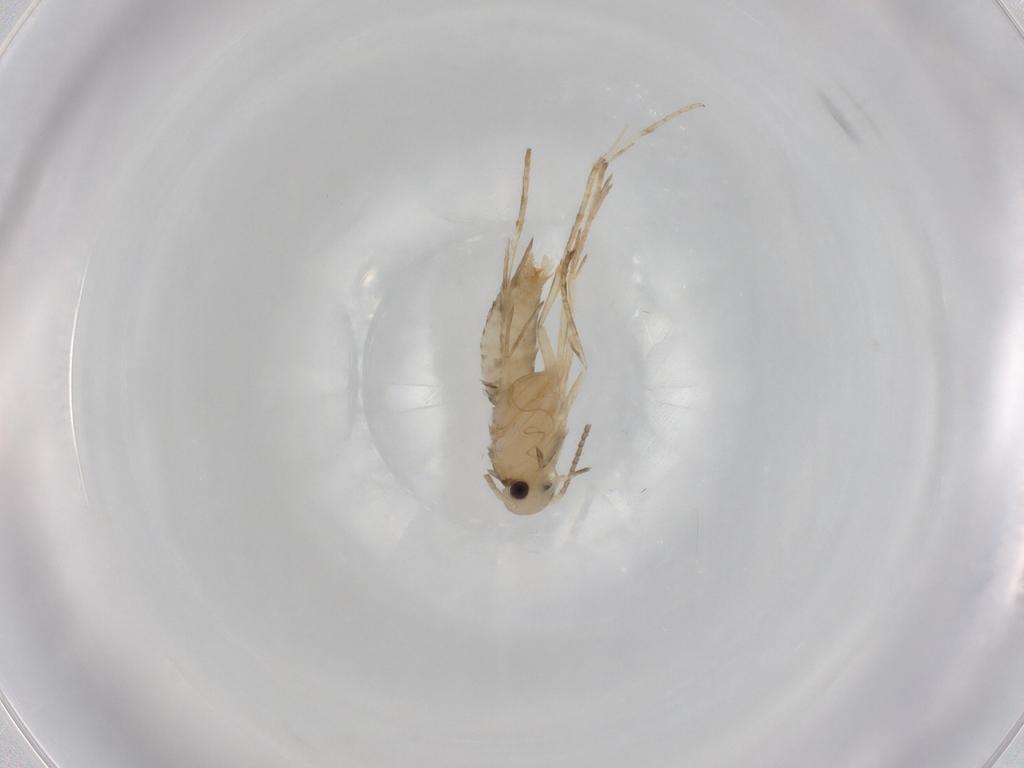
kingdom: Animalia
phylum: Arthropoda
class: Insecta
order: Lepidoptera
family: Schreckensteiniidae
